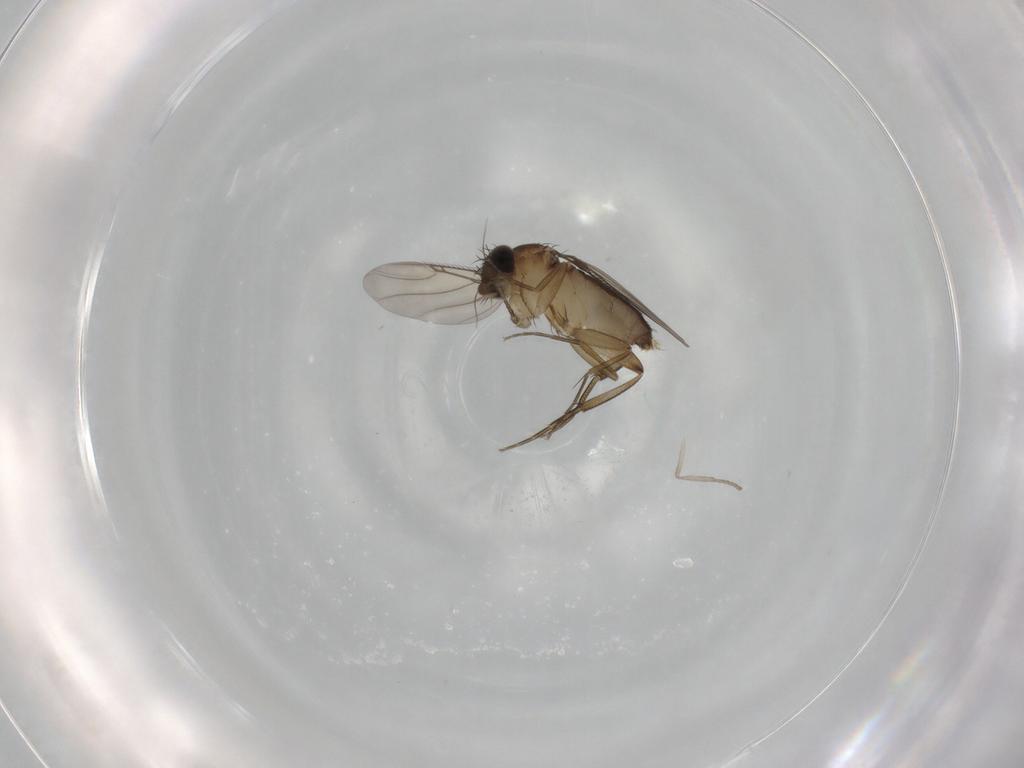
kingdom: Animalia
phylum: Arthropoda
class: Insecta
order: Diptera
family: Phoridae
